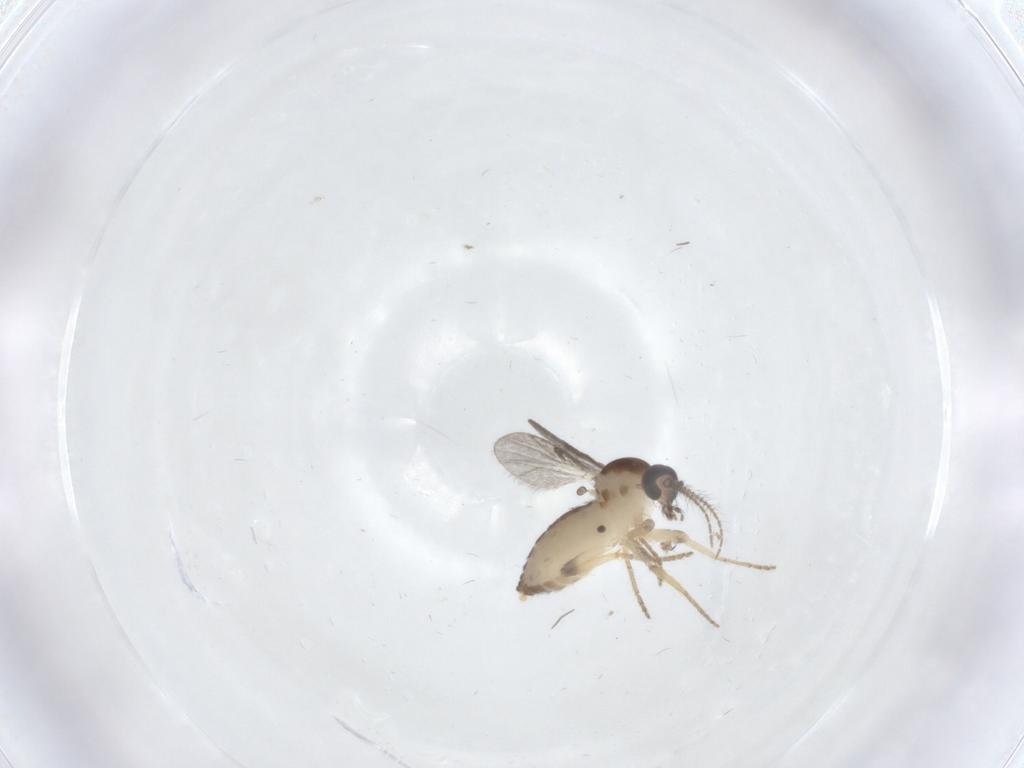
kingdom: Animalia
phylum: Arthropoda
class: Insecta
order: Diptera
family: Ceratopogonidae
